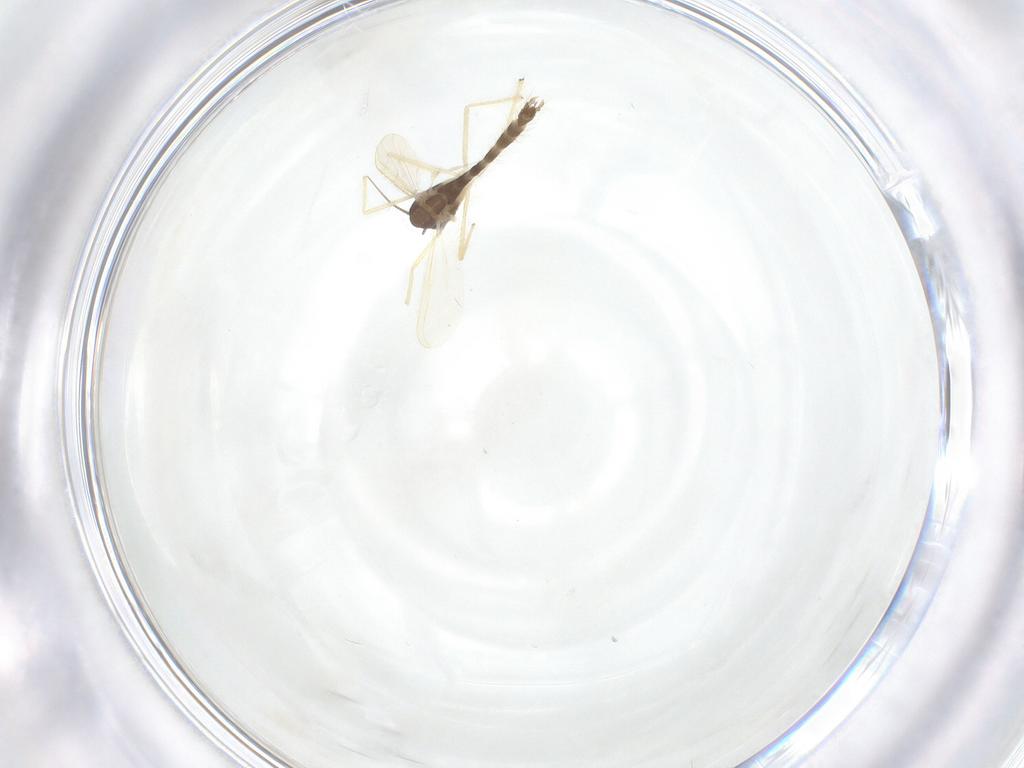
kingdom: Animalia
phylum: Arthropoda
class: Insecta
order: Diptera
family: Chironomidae
